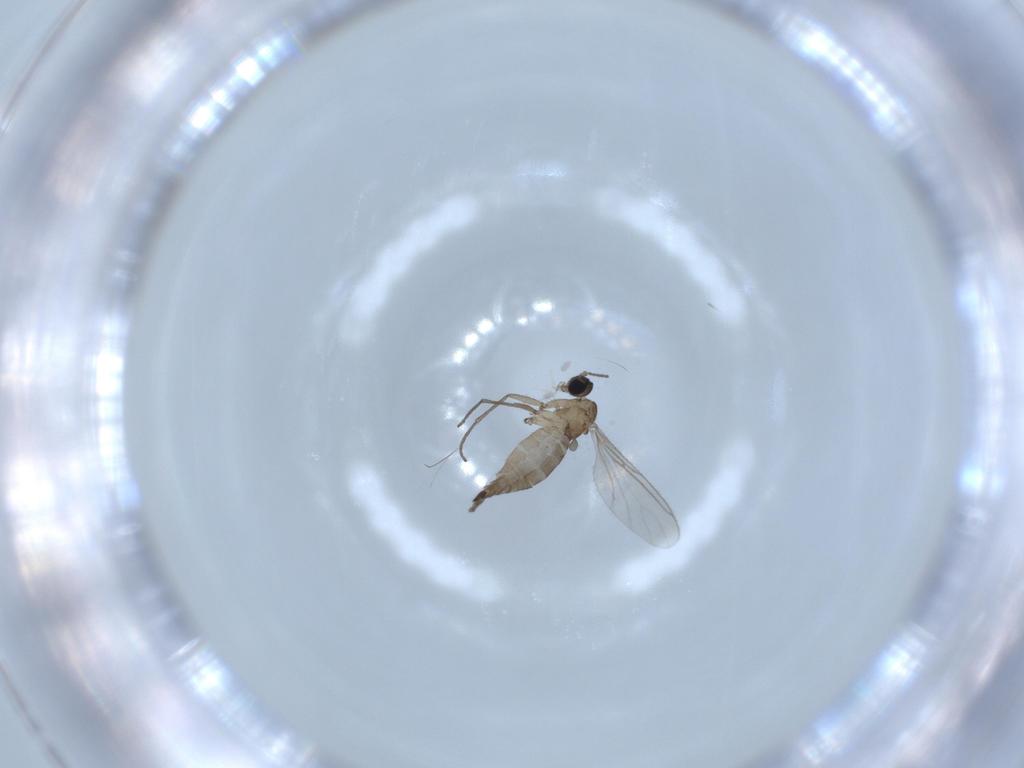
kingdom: Animalia
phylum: Arthropoda
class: Insecta
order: Diptera
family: Sciaridae
